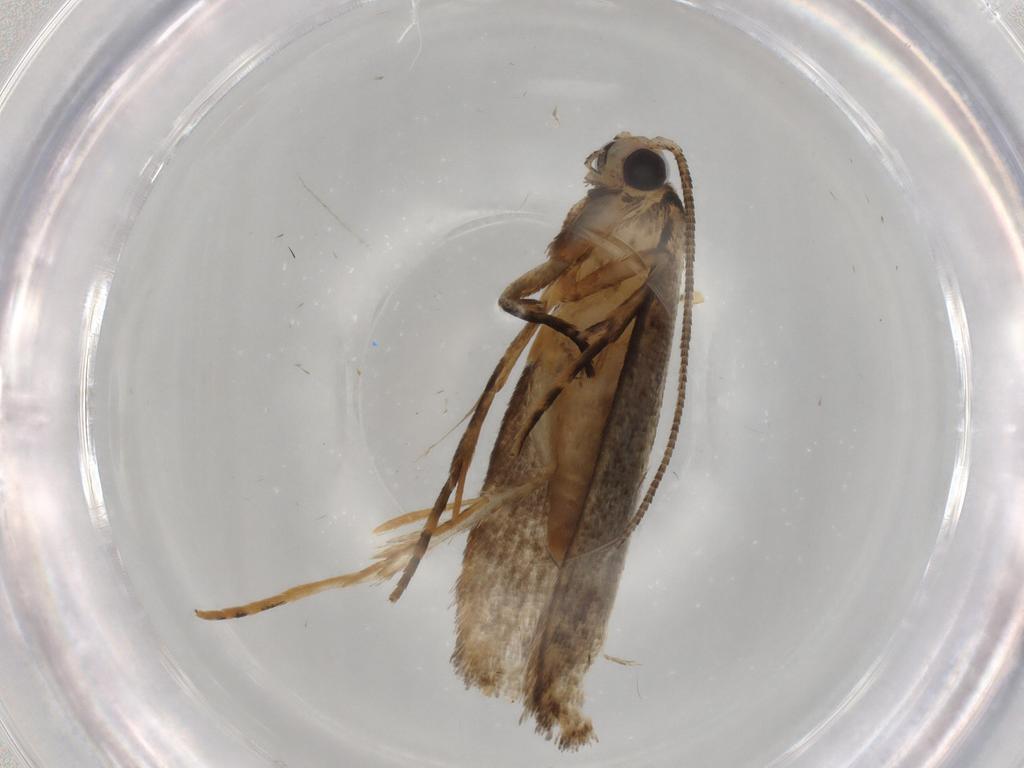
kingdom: Animalia
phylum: Arthropoda
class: Insecta
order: Lepidoptera
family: Tineidae
